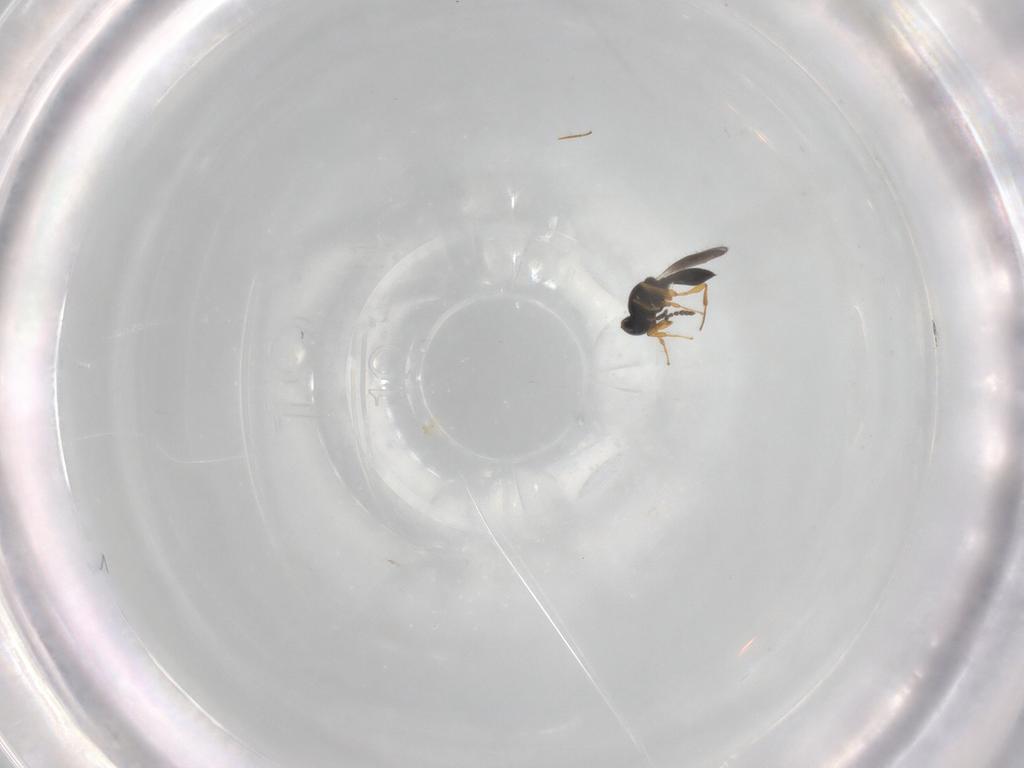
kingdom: Animalia
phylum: Arthropoda
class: Insecta
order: Hymenoptera
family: Platygastridae
